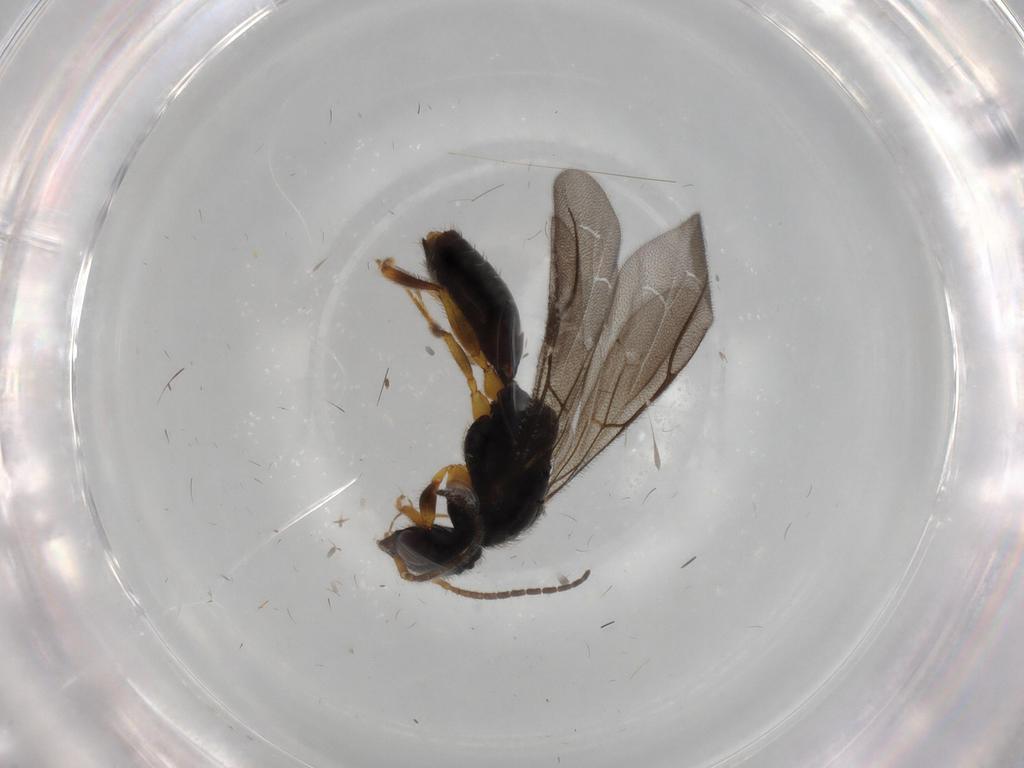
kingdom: Animalia
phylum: Arthropoda
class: Insecta
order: Hymenoptera
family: Bethylidae
